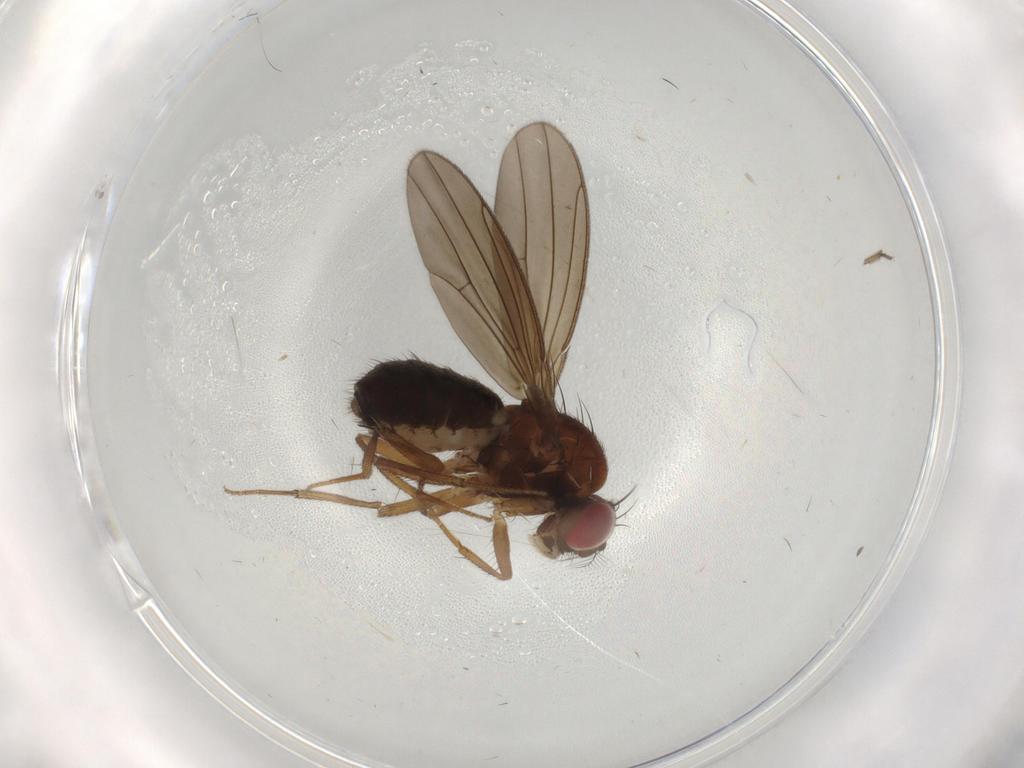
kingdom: Animalia
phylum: Arthropoda
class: Insecta
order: Diptera
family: Drosophilidae
